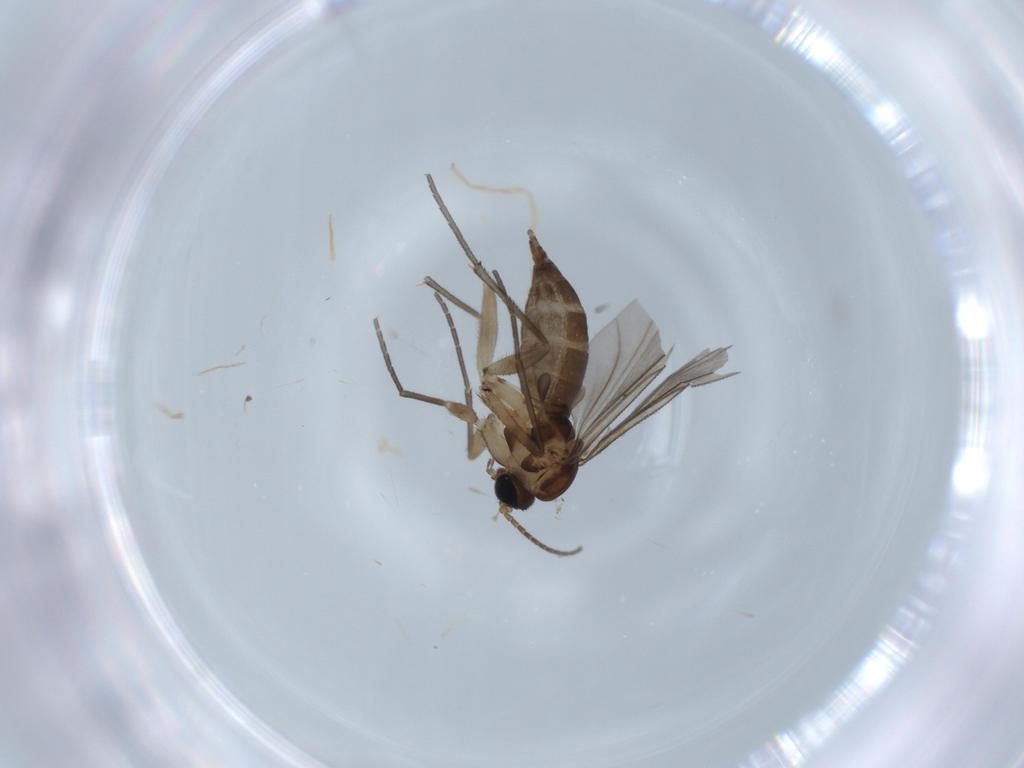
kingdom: Animalia
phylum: Arthropoda
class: Insecta
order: Diptera
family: Sciaridae
